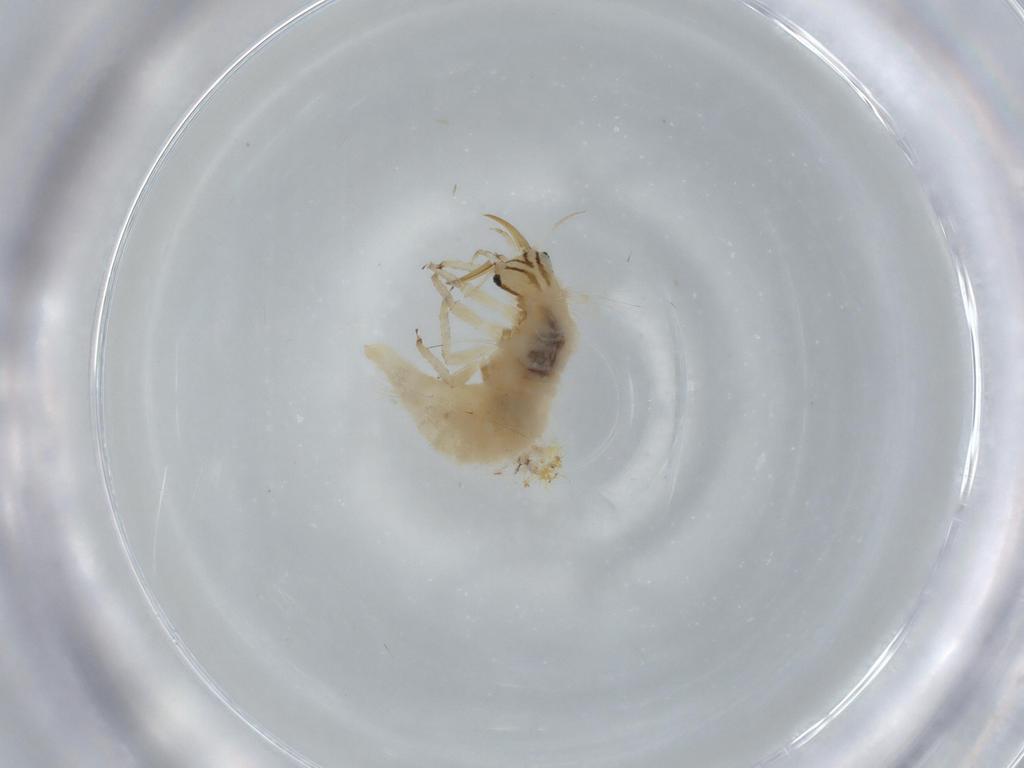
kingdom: Animalia
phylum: Arthropoda
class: Insecta
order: Neuroptera
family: Chrysopidae
